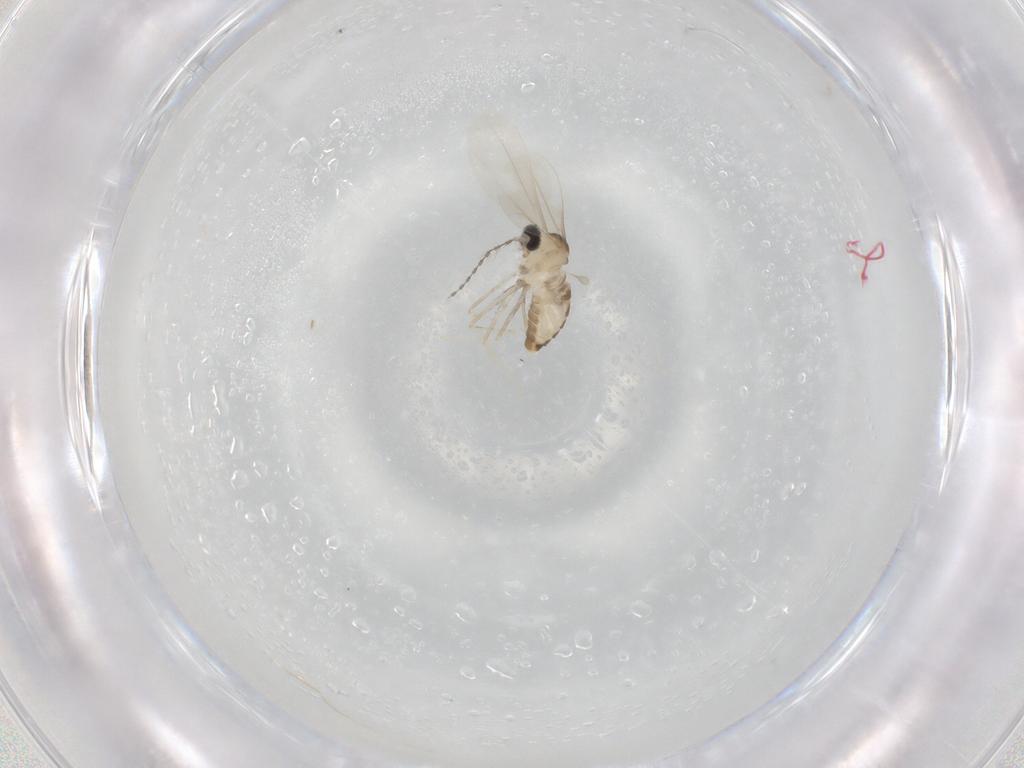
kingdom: Animalia
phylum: Arthropoda
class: Insecta
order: Diptera
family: Cecidomyiidae
